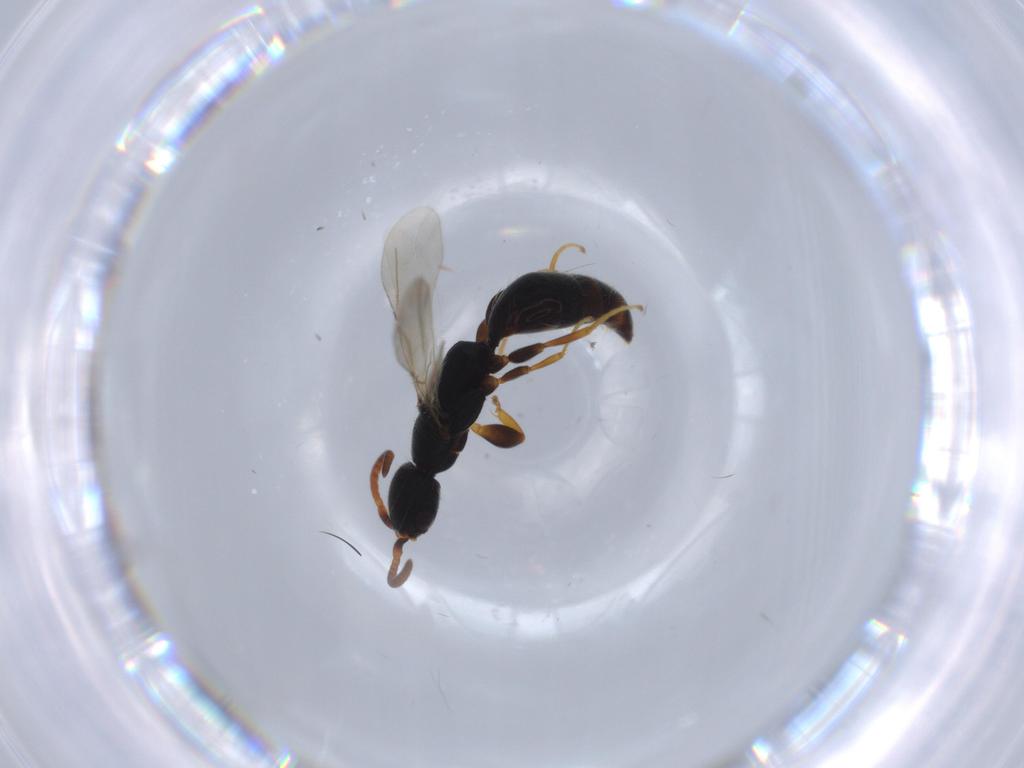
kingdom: Animalia
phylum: Arthropoda
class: Insecta
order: Hymenoptera
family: Bethylidae
